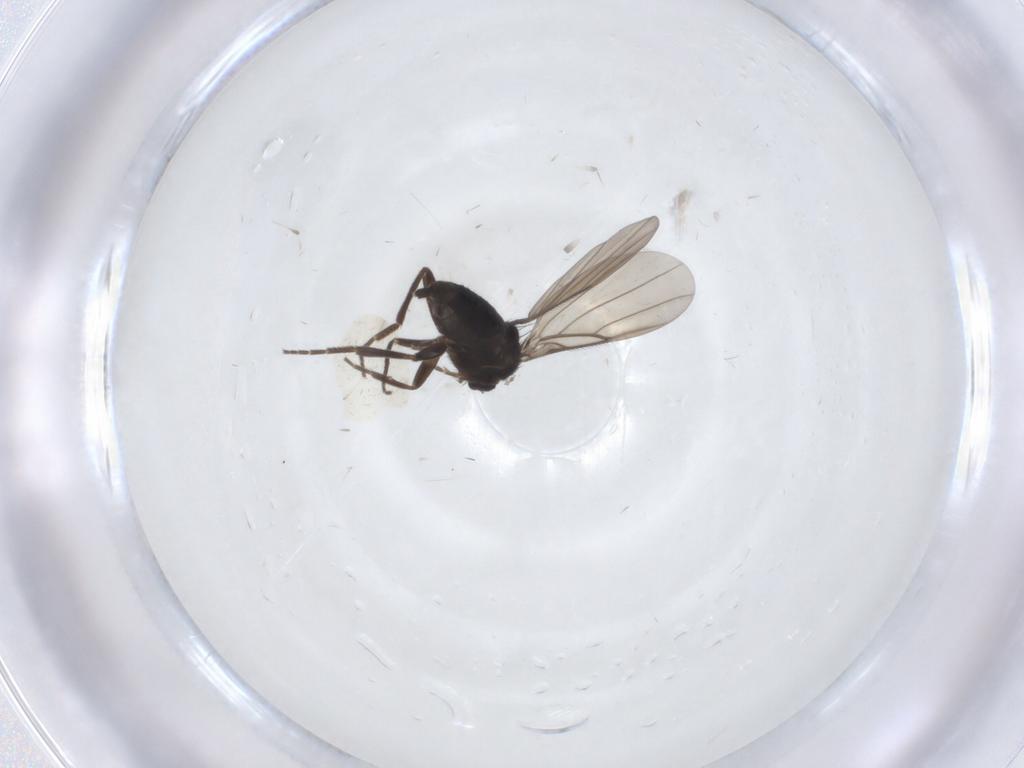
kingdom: Animalia
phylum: Arthropoda
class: Insecta
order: Diptera
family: Phoridae
